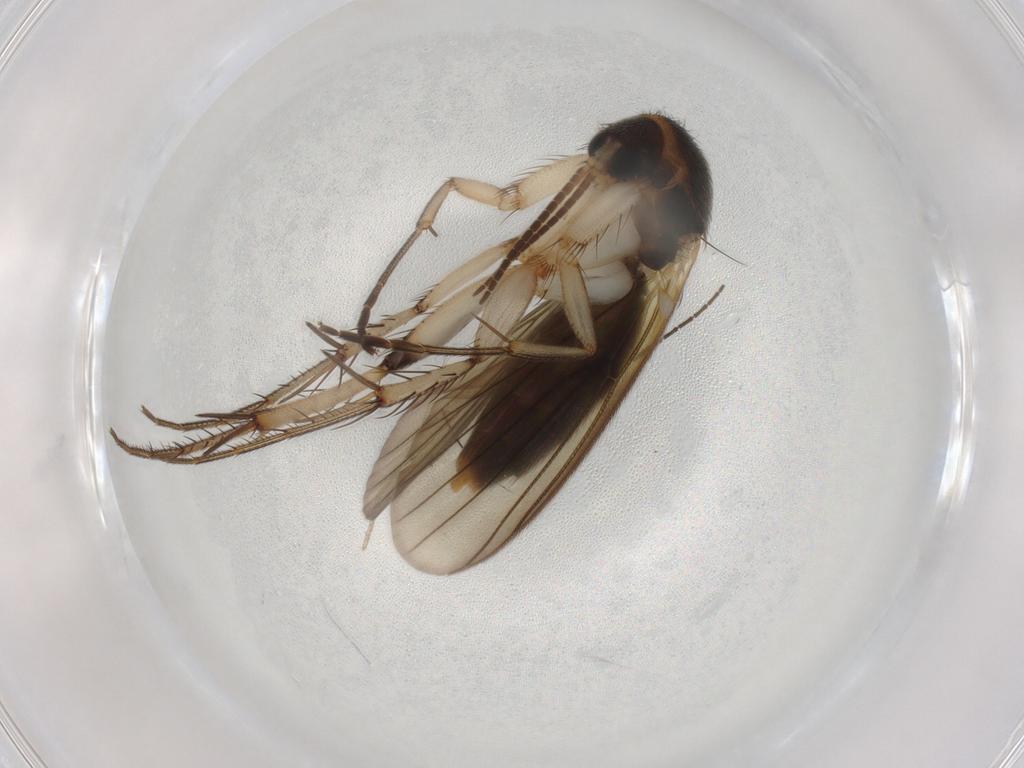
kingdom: Animalia
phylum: Arthropoda
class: Insecta
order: Diptera
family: Mycetophilidae
